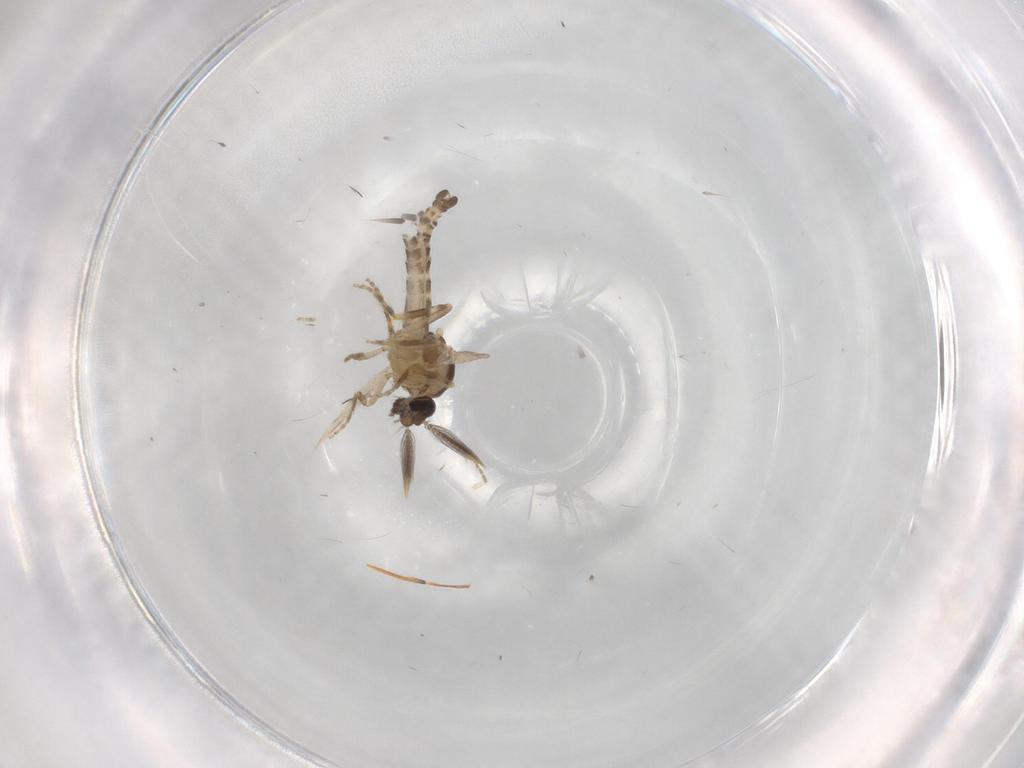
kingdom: Animalia
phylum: Arthropoda
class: Insecta
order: Diptera
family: Ceratopogonidae
